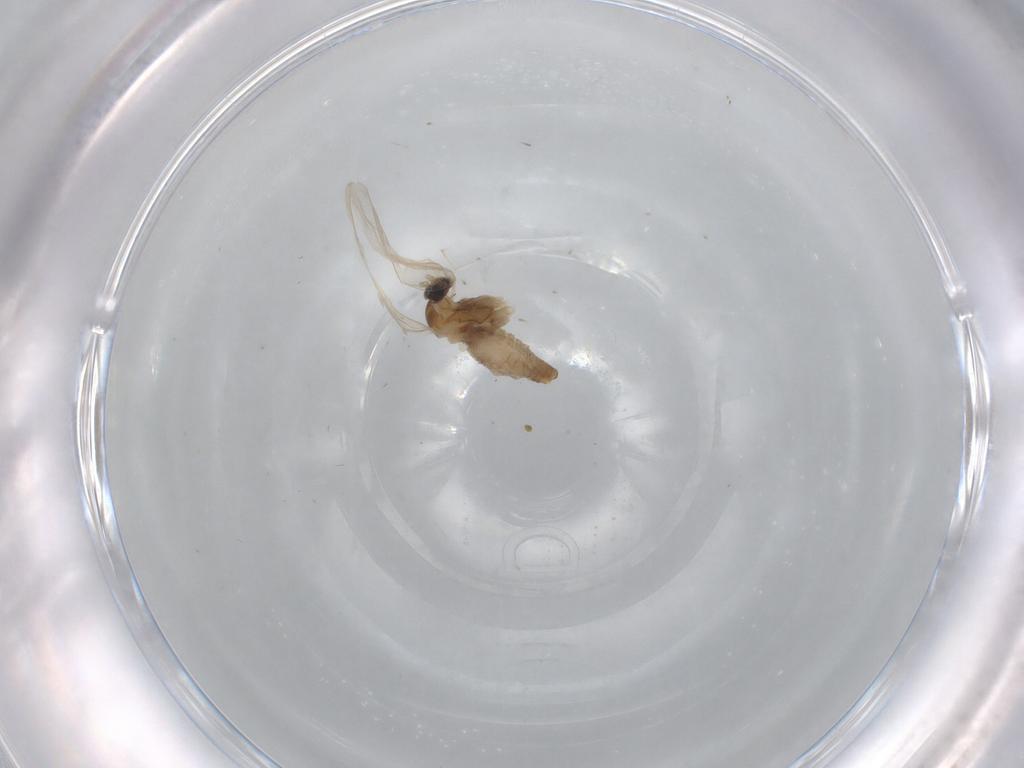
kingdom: Animalia
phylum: Arthropoda
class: Insecta
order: Diptera
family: Cecidomyiidae
